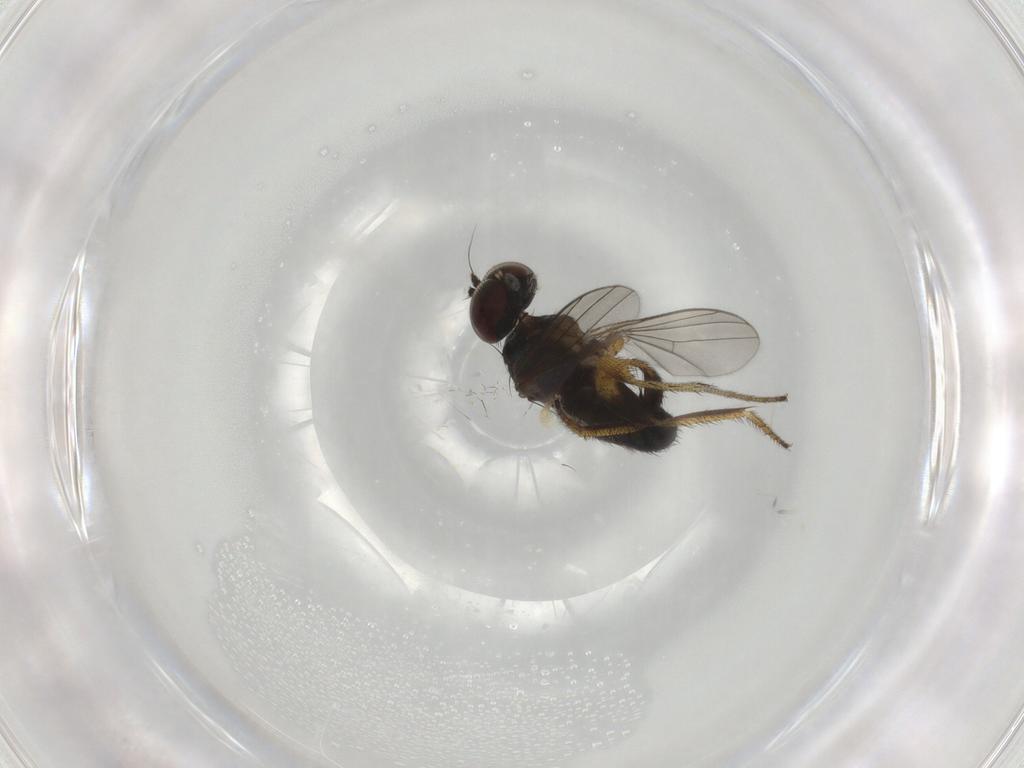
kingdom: Animalia
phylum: Arthropoda
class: Insecta
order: Diptera
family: Dolichopodidae
